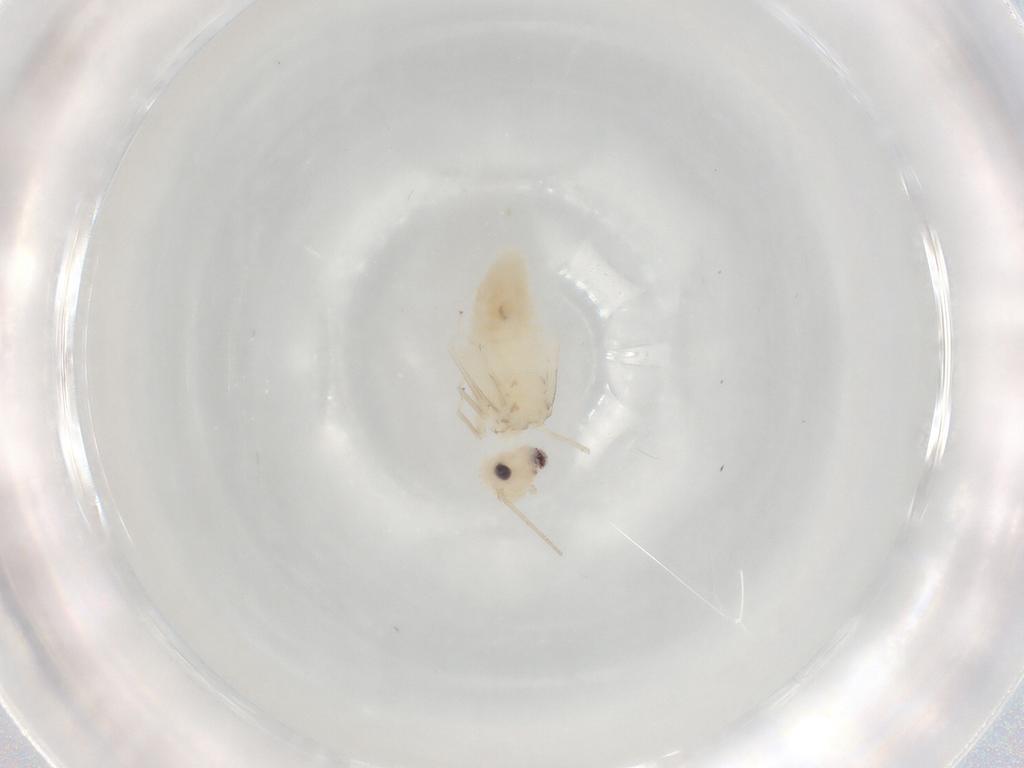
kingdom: Animalia
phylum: Arthropoda
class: Insecta
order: Diptera
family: Cecidomyiidae
